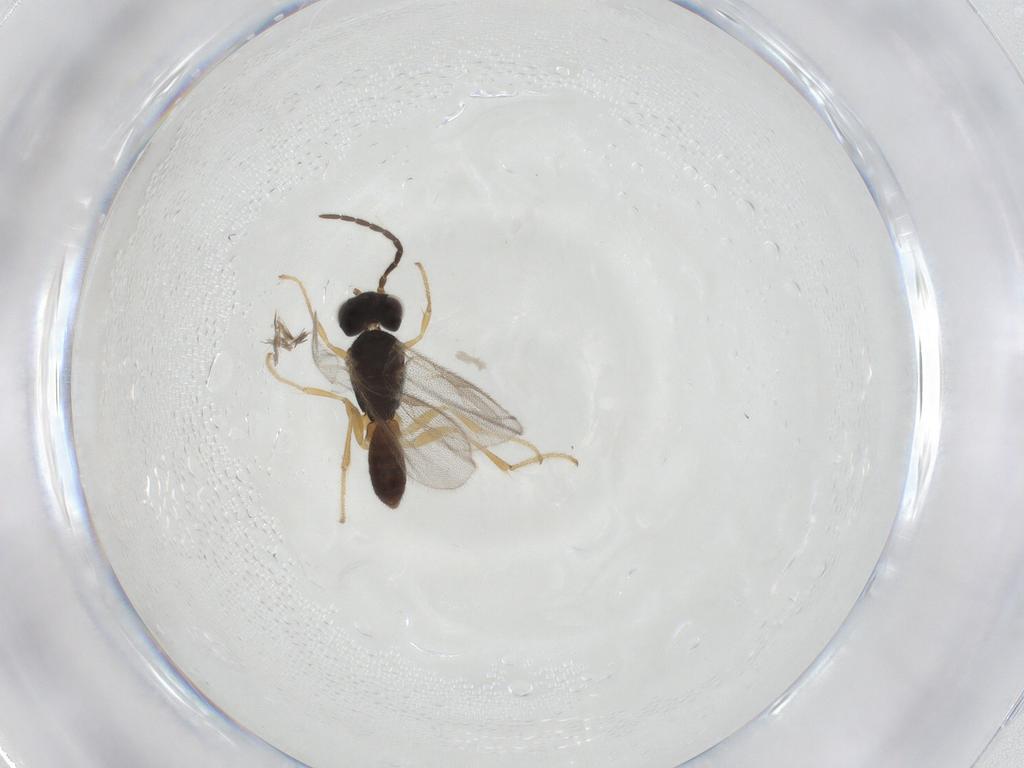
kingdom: Animalia
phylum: Arthropoda
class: Insecta
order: Hymenoptera
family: Dryinidae
